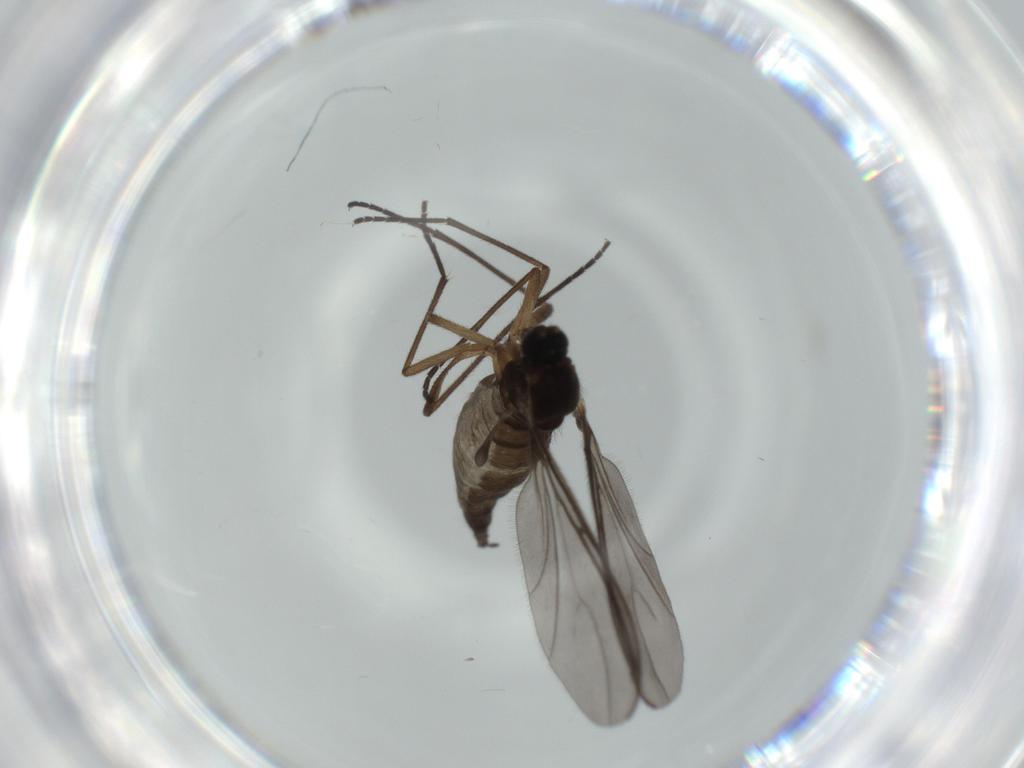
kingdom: Animalia
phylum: Arthropoda
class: Insecta
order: Diptera
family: Sciaridae
